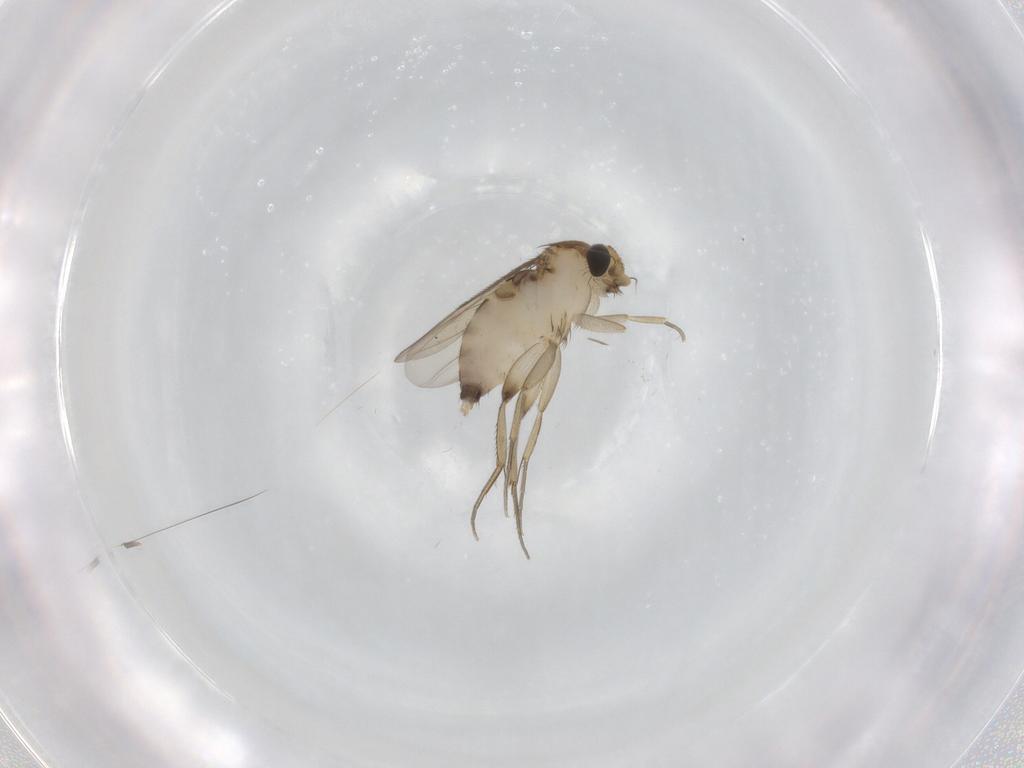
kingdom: Animalia
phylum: Arthropoda
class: Insecta
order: Diptera
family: Phoridae
